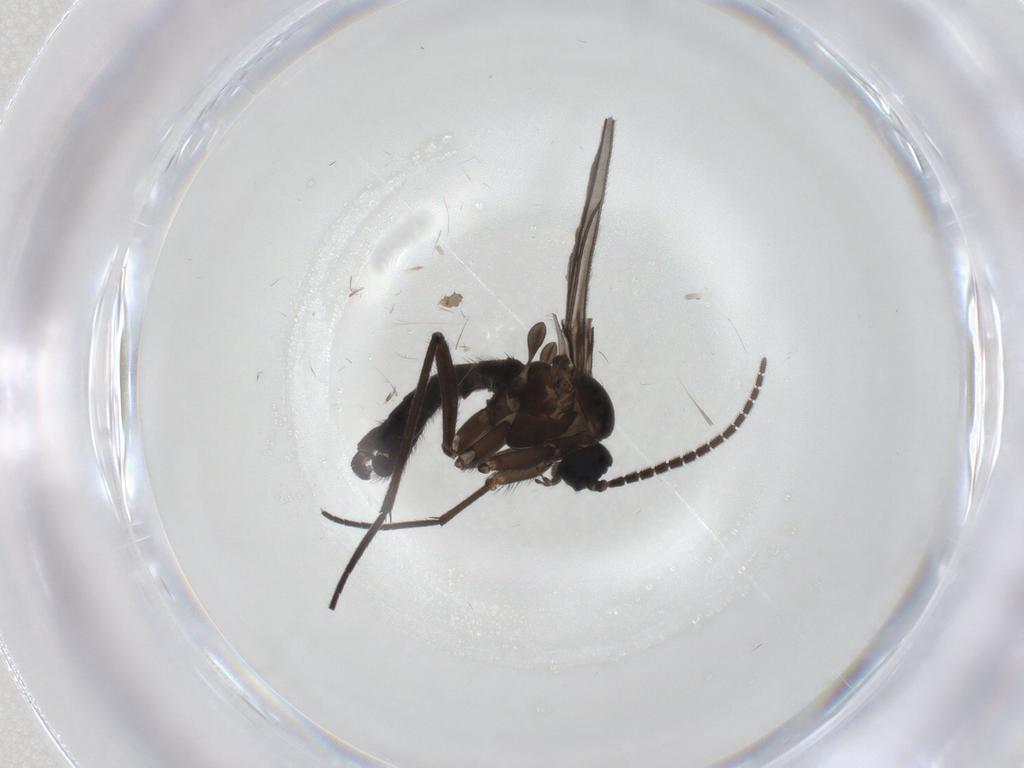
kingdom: Animalia
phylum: Arthropoda
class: Insecta
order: Diptera
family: Sciaridae
